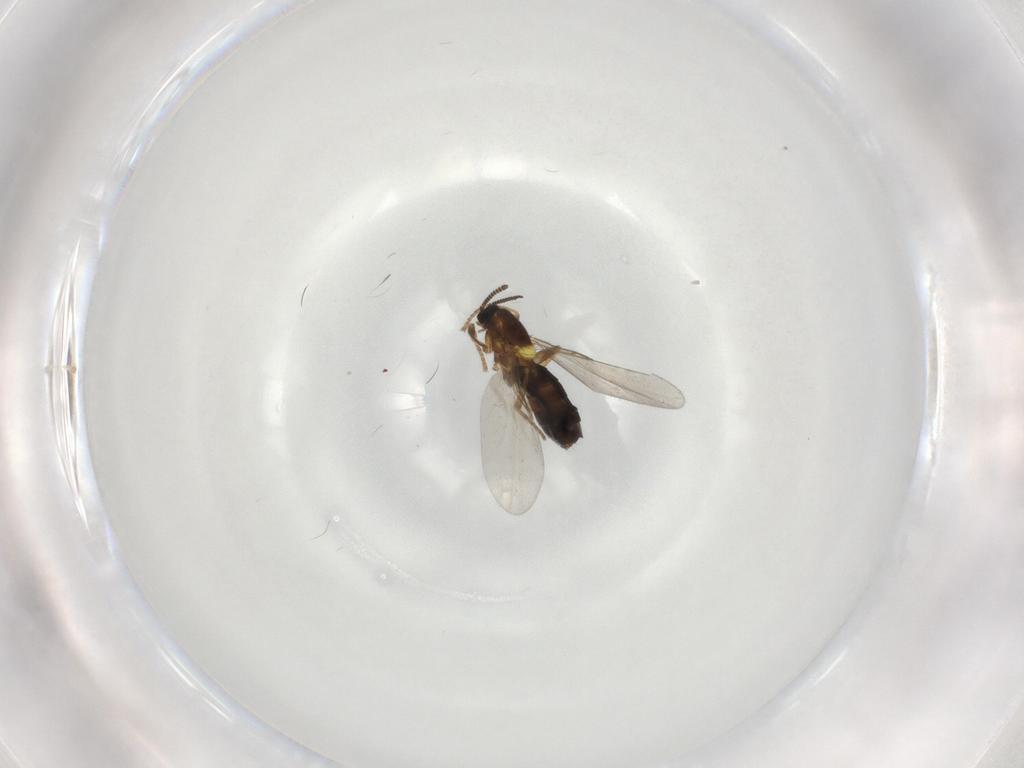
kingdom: Animalia
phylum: Arthropoda
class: Insecta
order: Diptera
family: Scatopsidae
